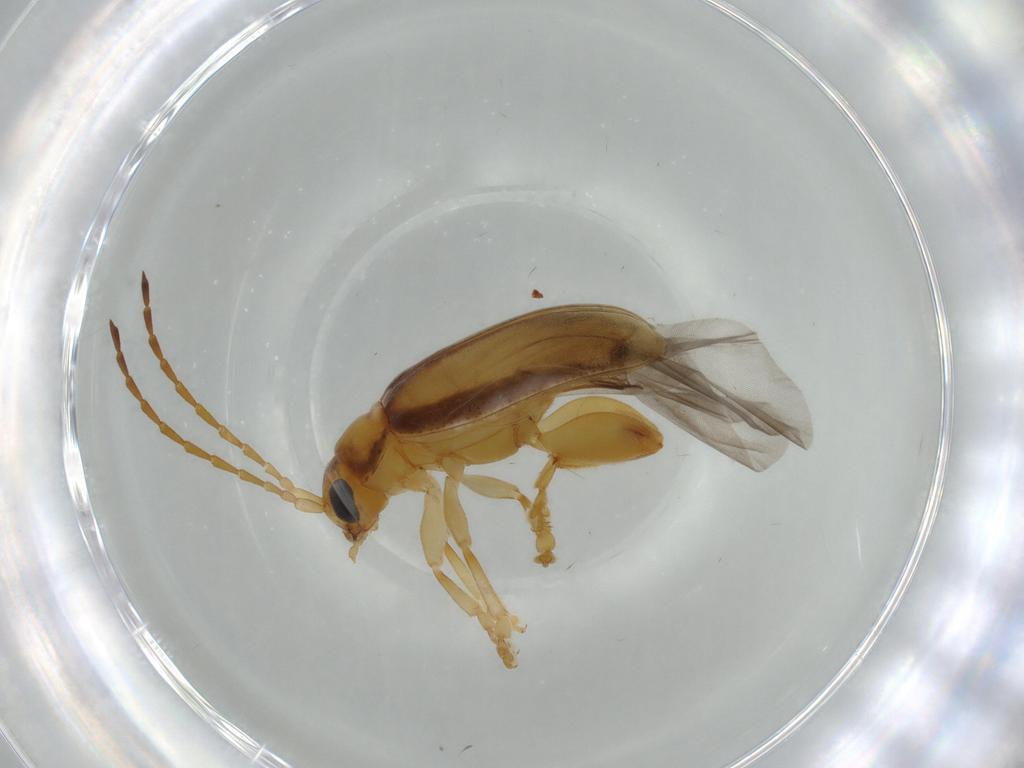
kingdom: Animalia
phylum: Arthropoda
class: Insecta
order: Coleoptera
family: Chrysomelidae
